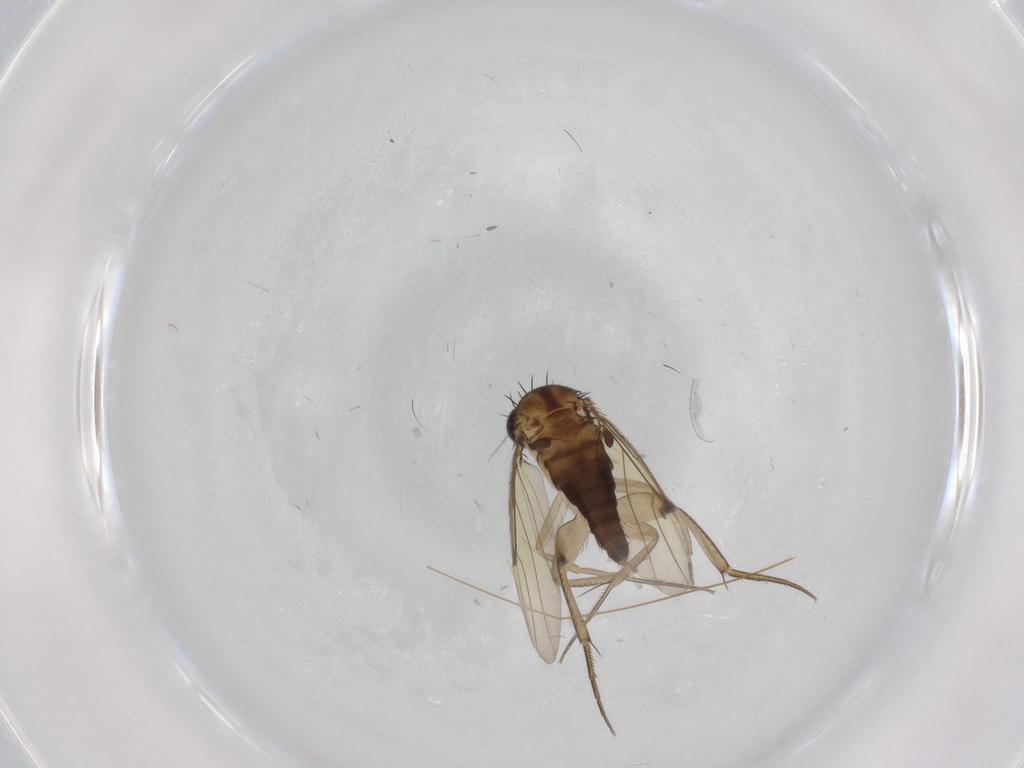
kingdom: Animalia
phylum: Arthropoda
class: Insecta
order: Diptera
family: Phoridae
